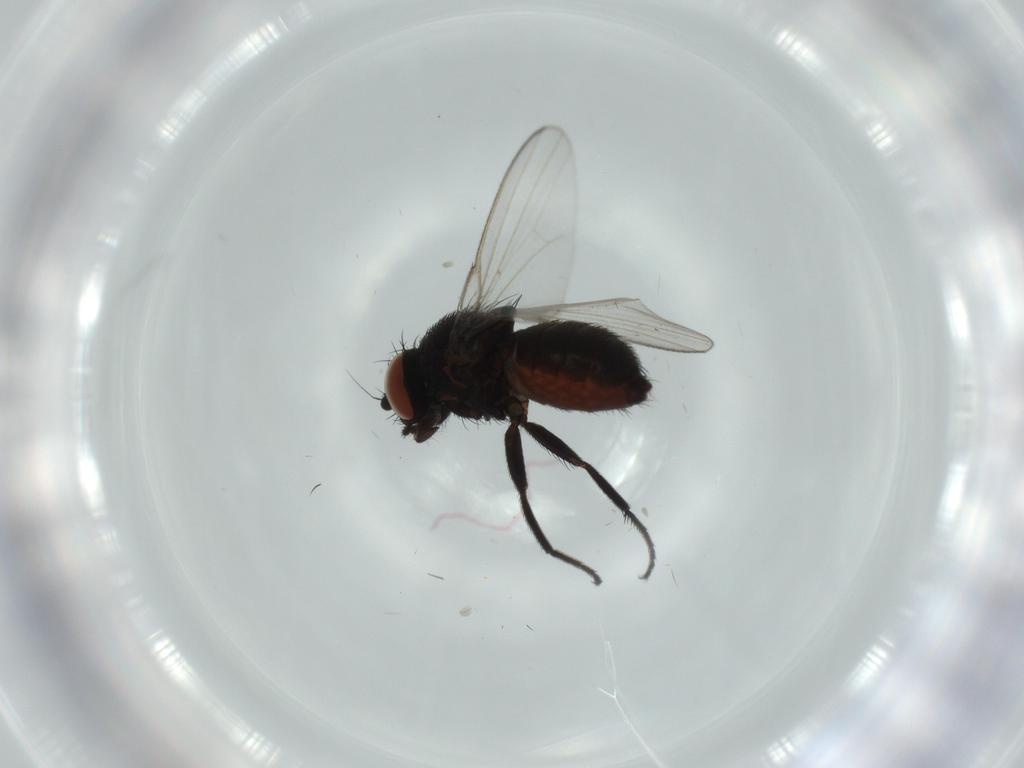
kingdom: Animalia
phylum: Arthropoda
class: Insecta
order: Diptera
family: Milichiidae
